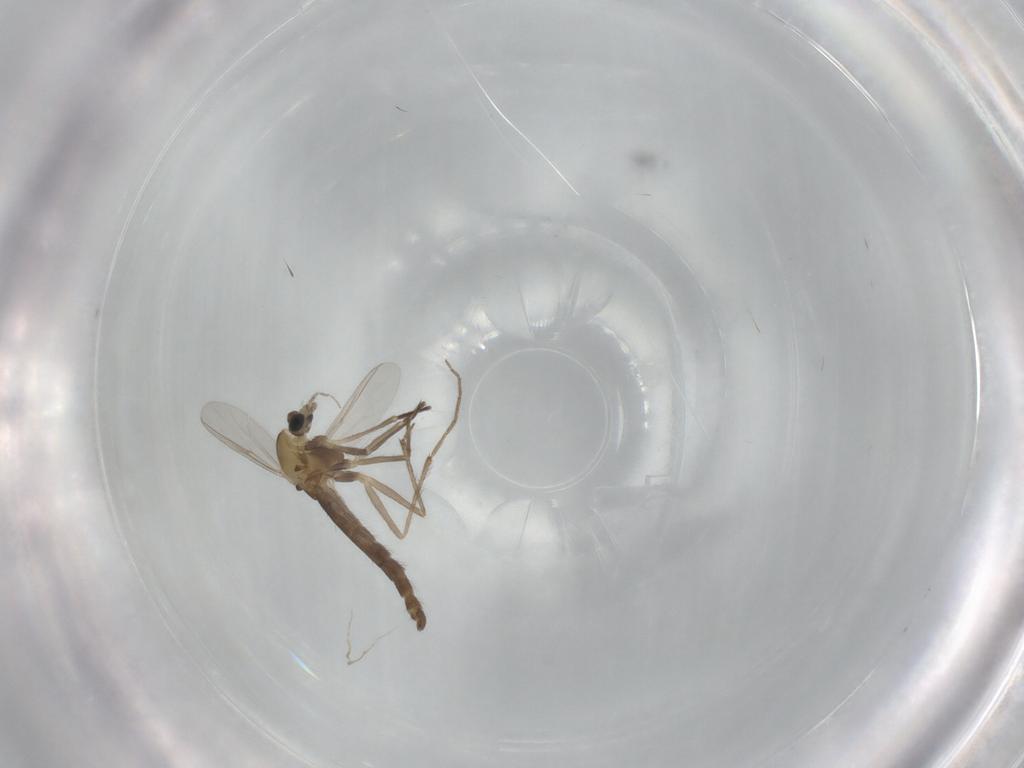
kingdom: Animalia
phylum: Arthropoda
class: Insecta
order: Diptera
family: Chironomidae
